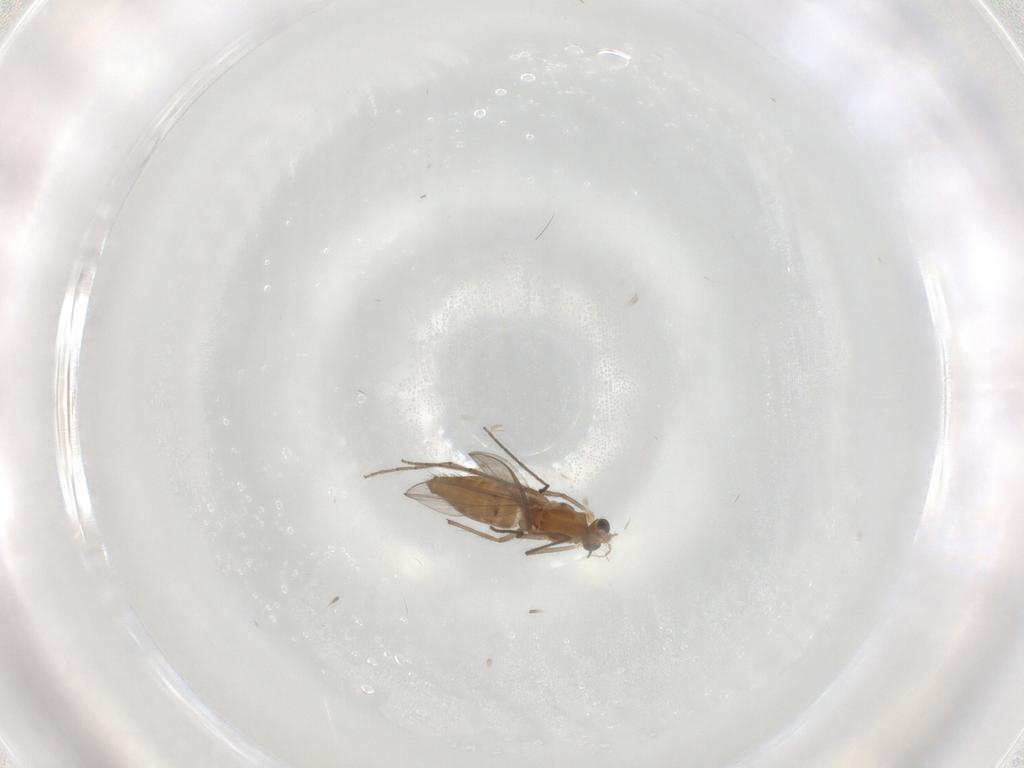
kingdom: Animalia
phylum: Arthropoda
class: Insecta
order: Diptera
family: Chironomidae
